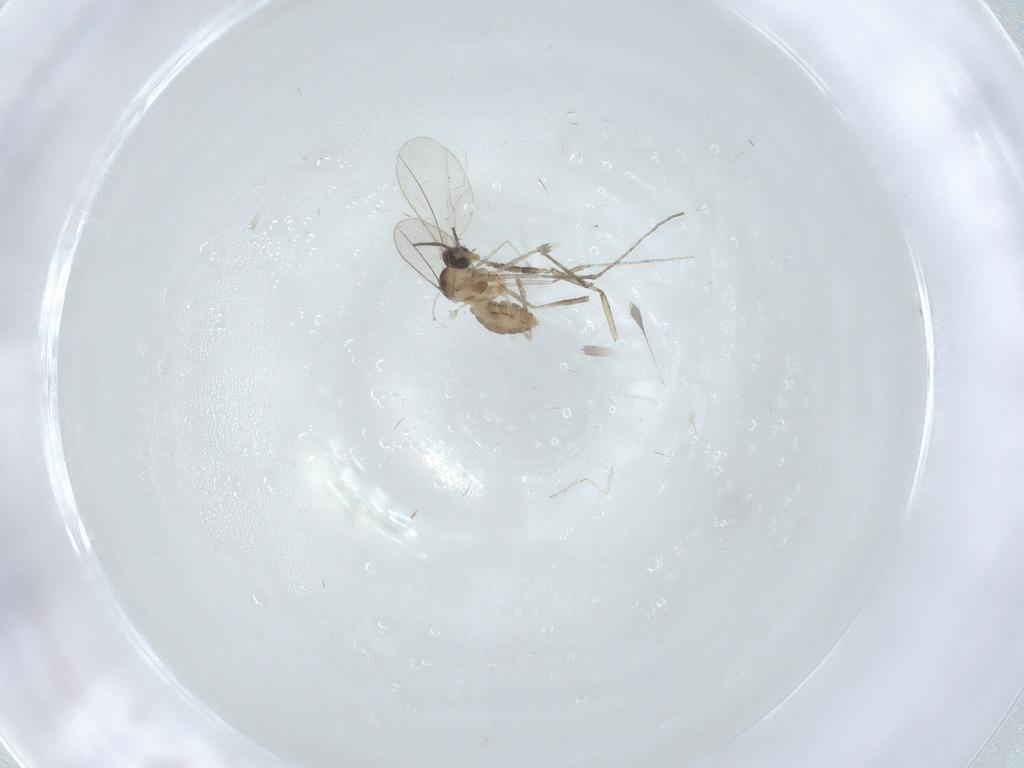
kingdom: Animalia
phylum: Arthropoda
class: Insecta
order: Diptera
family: Cecidomyiidae
